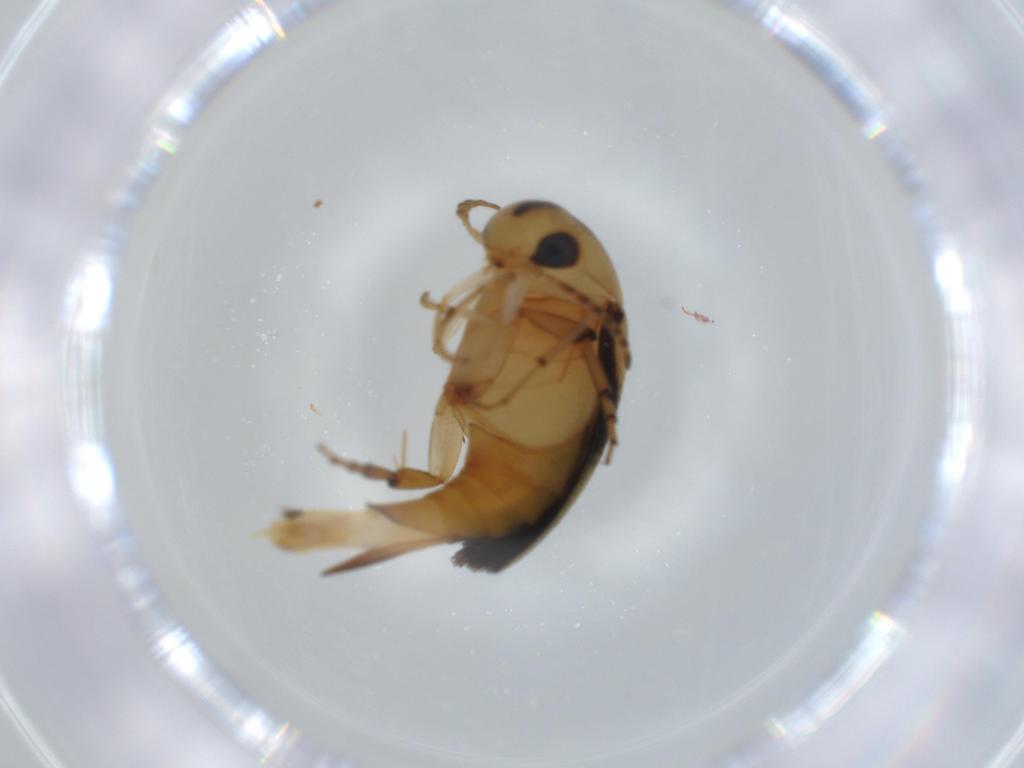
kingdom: Animalia
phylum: Arthropoda
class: Insecta
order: Coleoptera
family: Mordellidae
